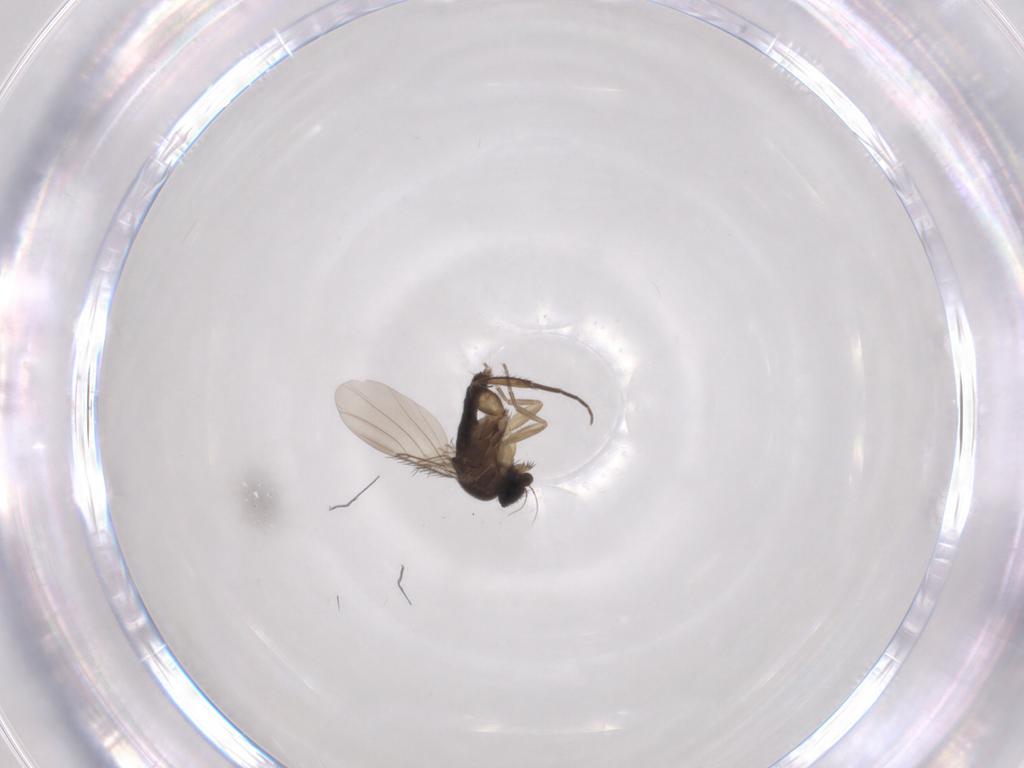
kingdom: Animalia
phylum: Arthropoda
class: Insecta
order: Diptera
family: Phoridae
